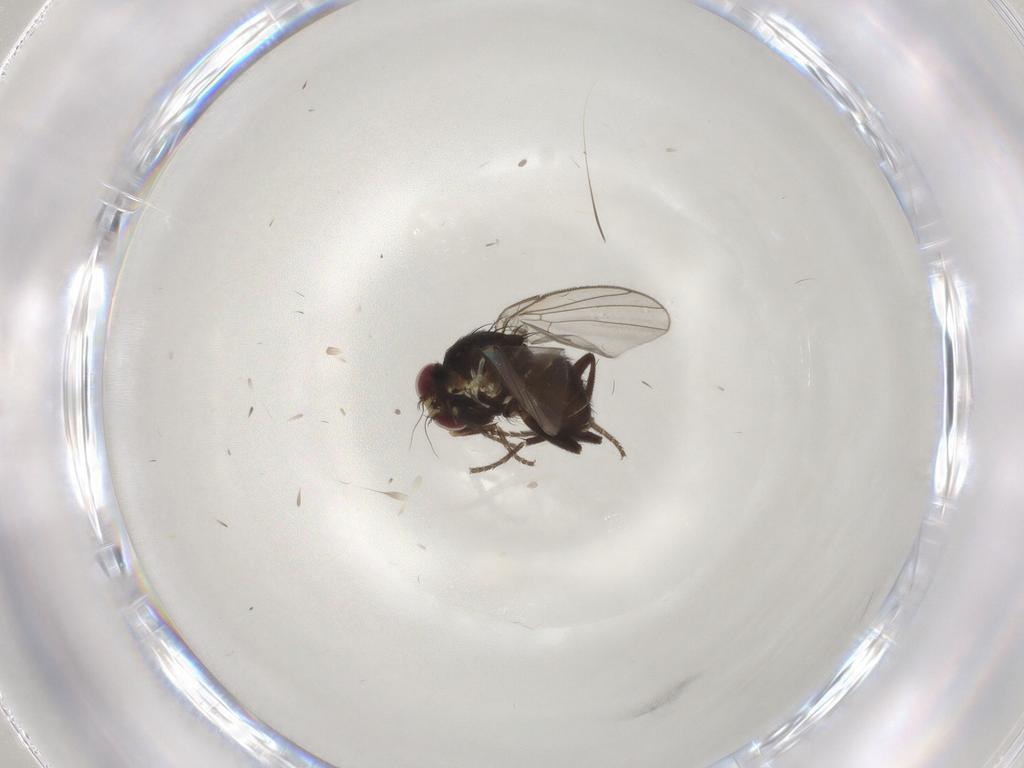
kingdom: Animalia
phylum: Arthropoda
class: Insecta
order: Diptera
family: Agromyzidae
